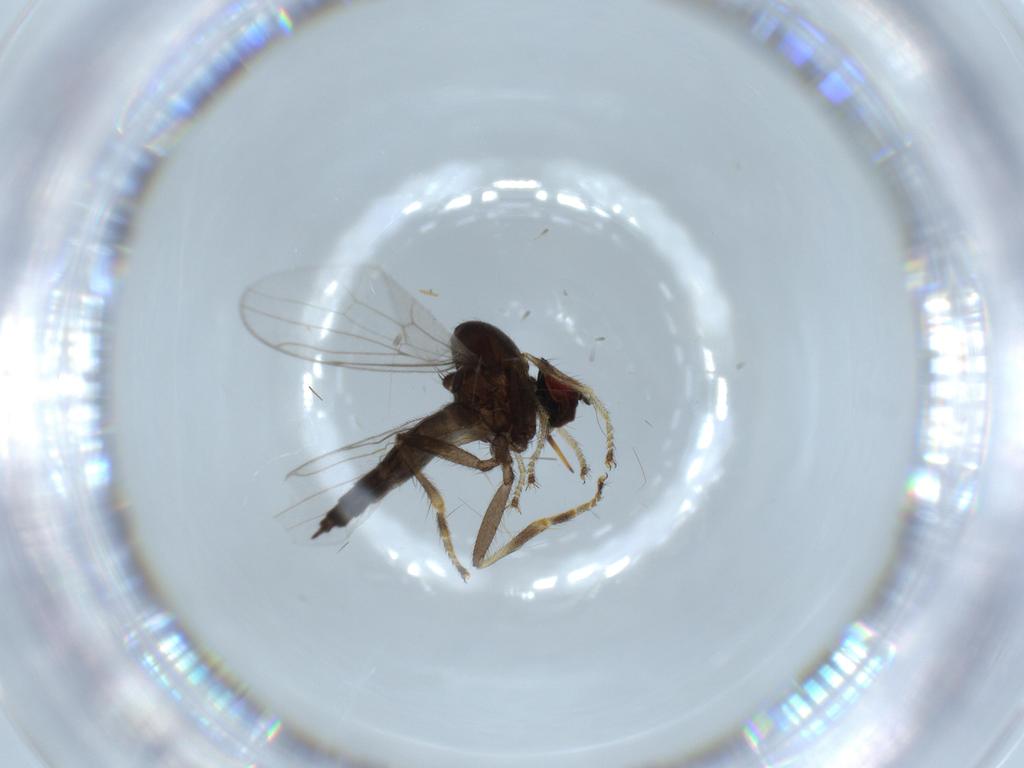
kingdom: Animalia
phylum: Arthropoda
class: Insecta
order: Diptera
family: Hybotidae
